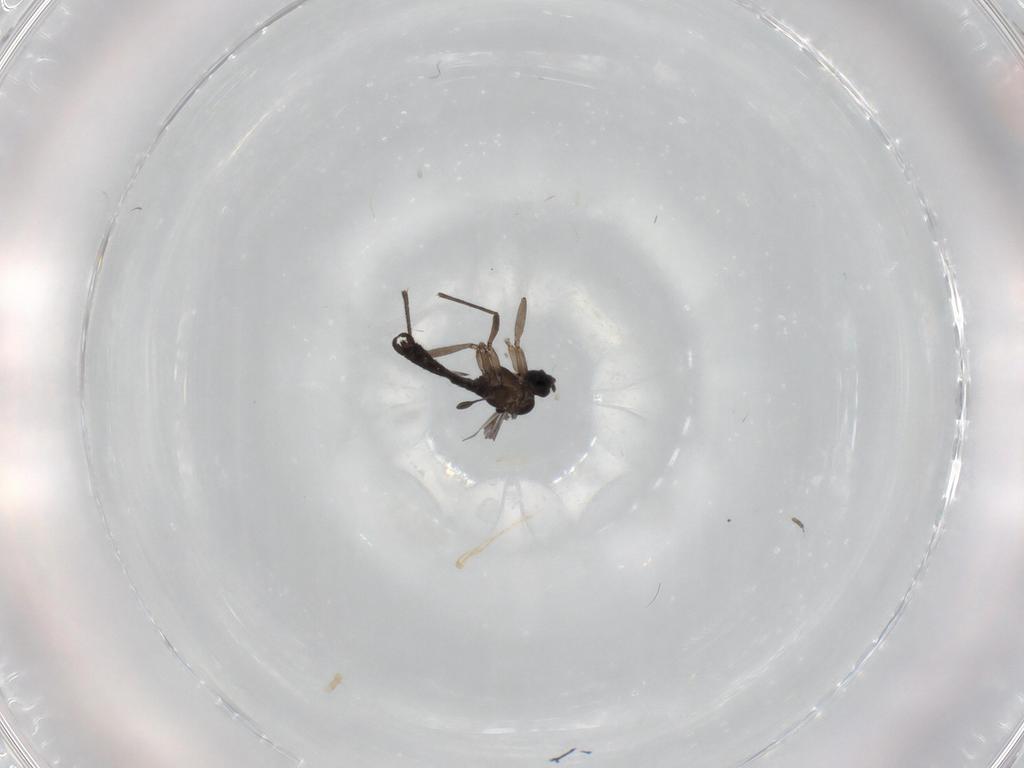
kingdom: Animalia
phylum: Arthropoda
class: Insecta
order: Diptera
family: Sciaridae
